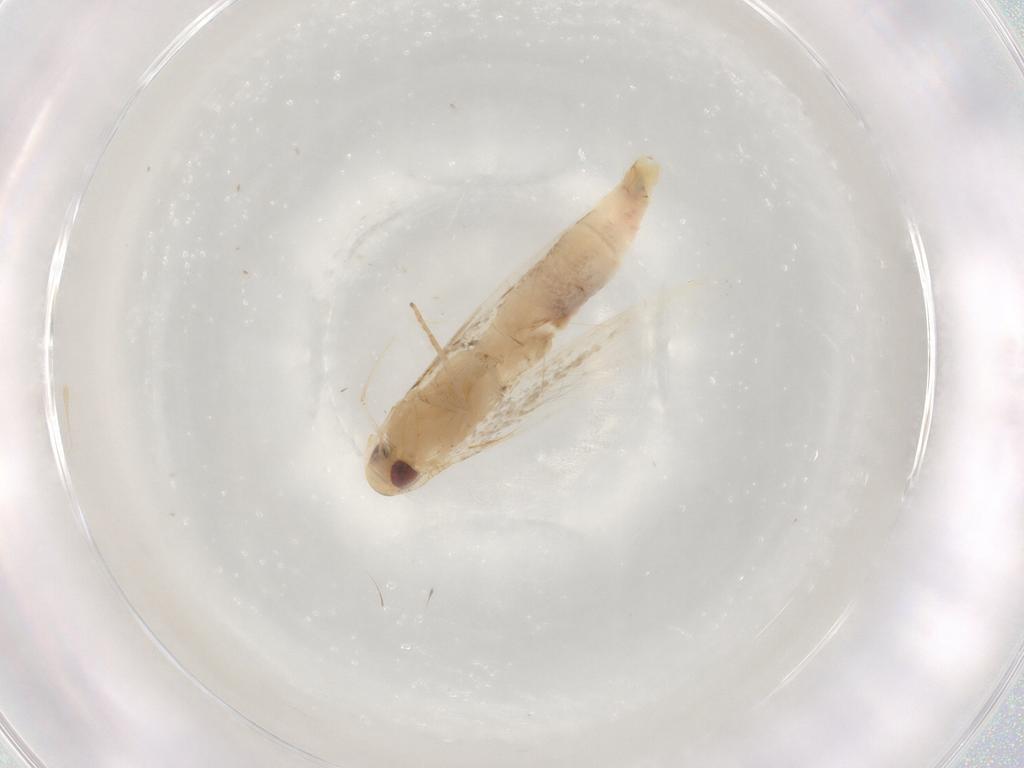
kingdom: Animalia
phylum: Arthropoda
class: Insecta
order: Lepidoptera
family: Cosmopterigidae
